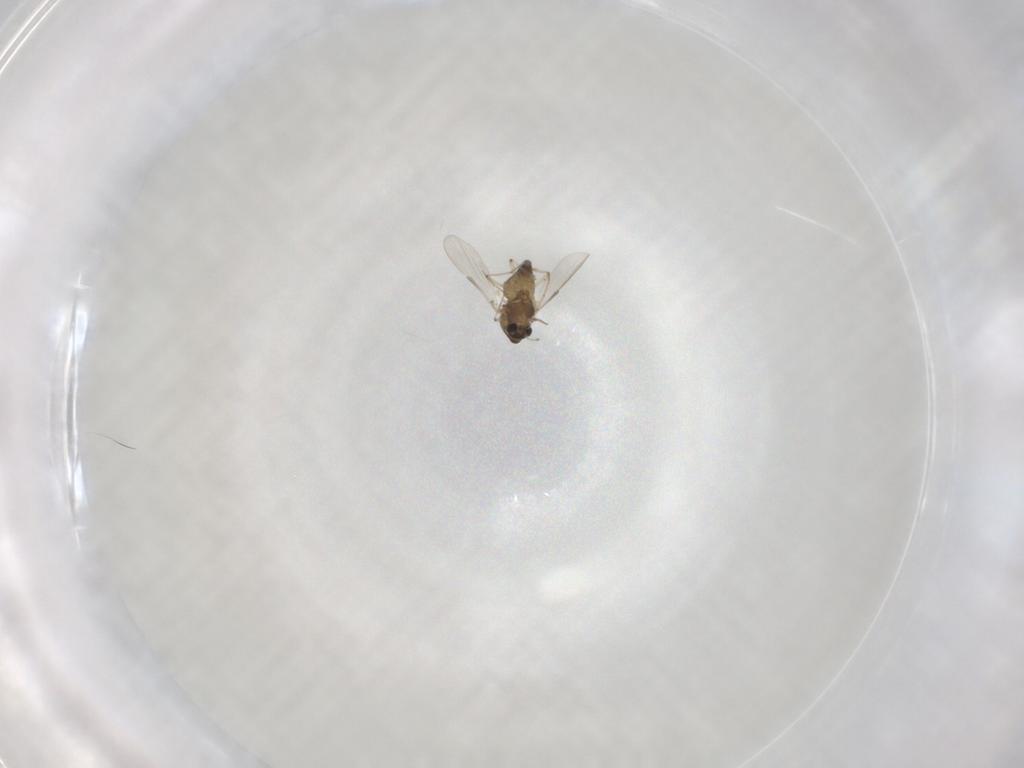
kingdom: Animalia
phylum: Arthropoda
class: Insecta
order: Diptera
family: Chironomidae
